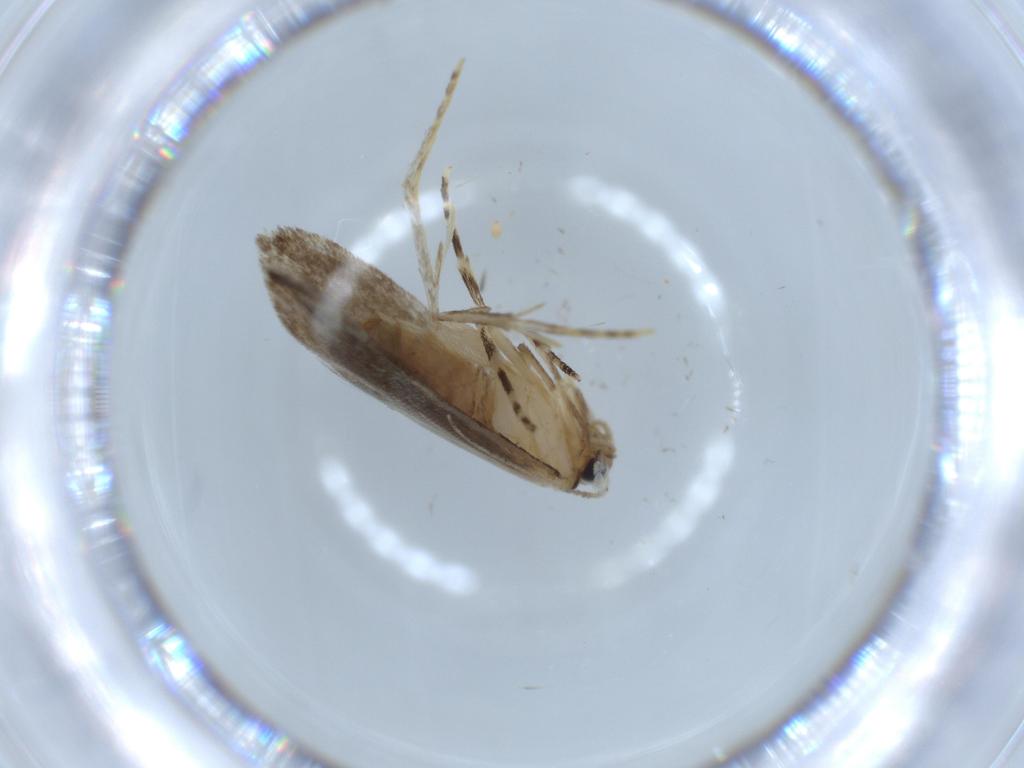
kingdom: Animalia
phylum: Arthropoda
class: Insecta
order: Lepidoptera
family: Tineidae
